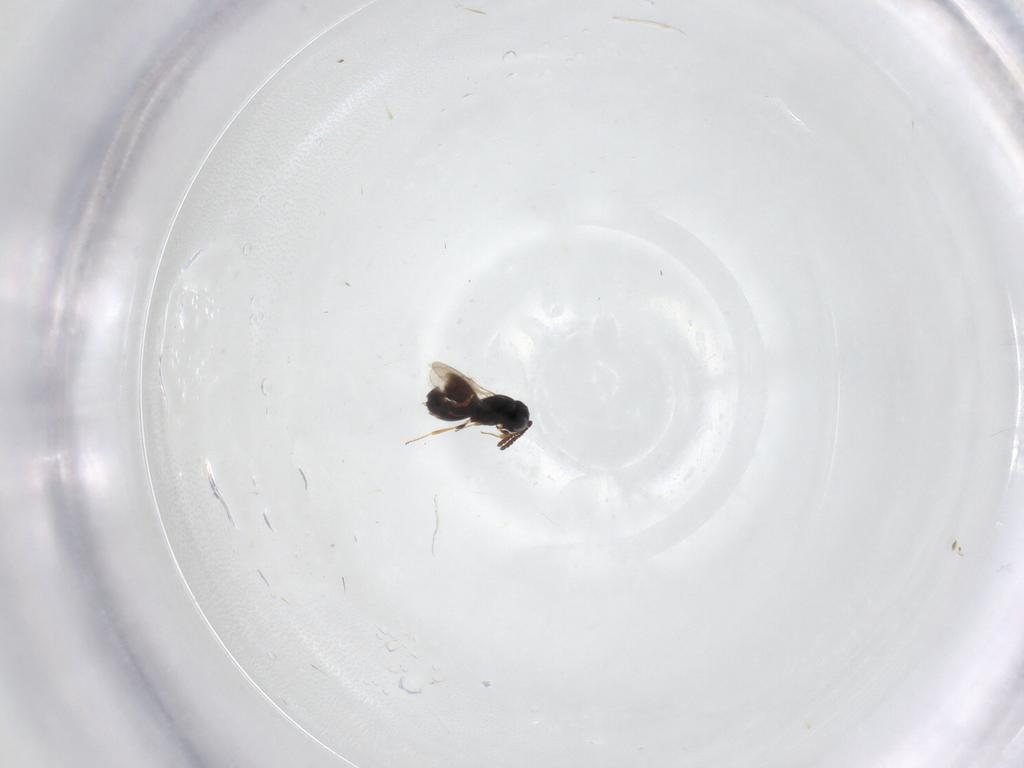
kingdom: Animalia
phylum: Arthropoda
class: Insecta
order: Hymenoptera
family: Scelionidae
